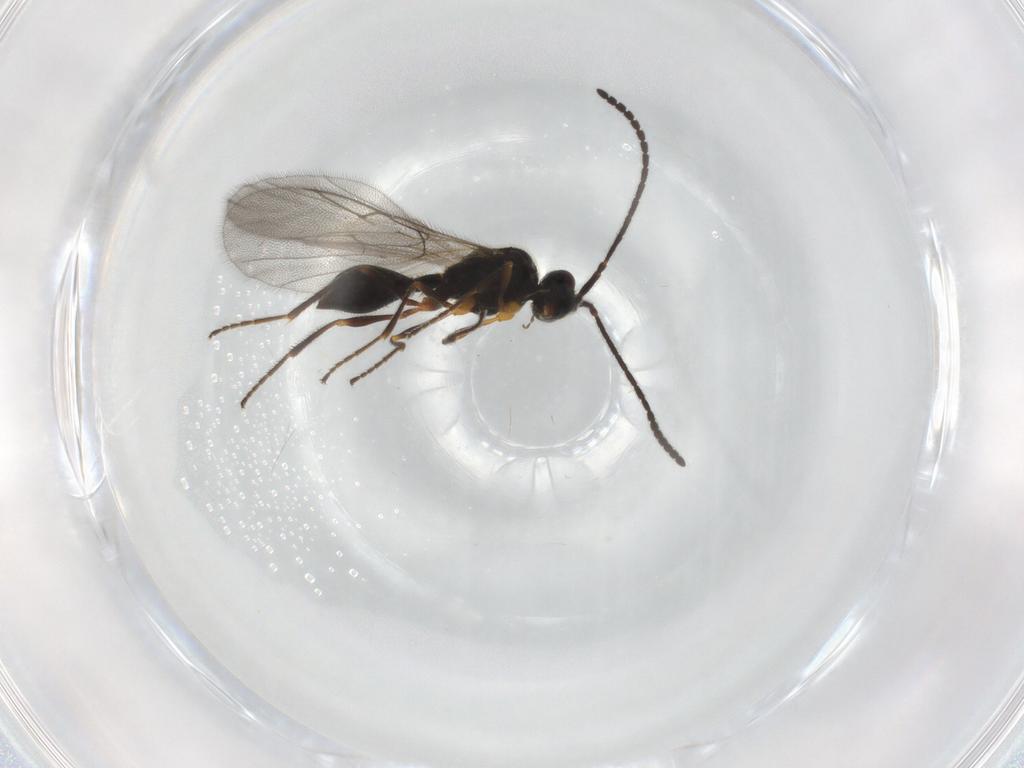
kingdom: Animalia
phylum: Arthropoda
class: Insecta
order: Hymenoptera
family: Diapriidae
